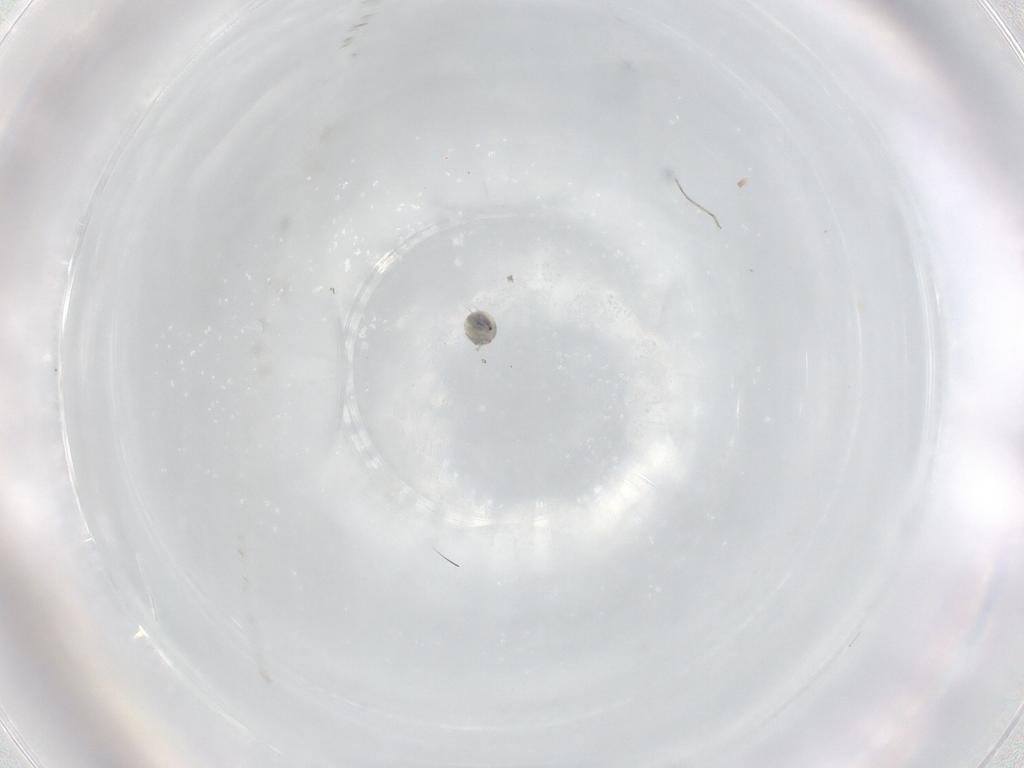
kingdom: Animalia
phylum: Arthropoda
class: Arachnida
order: Trombidiformes
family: Unionicolidae
